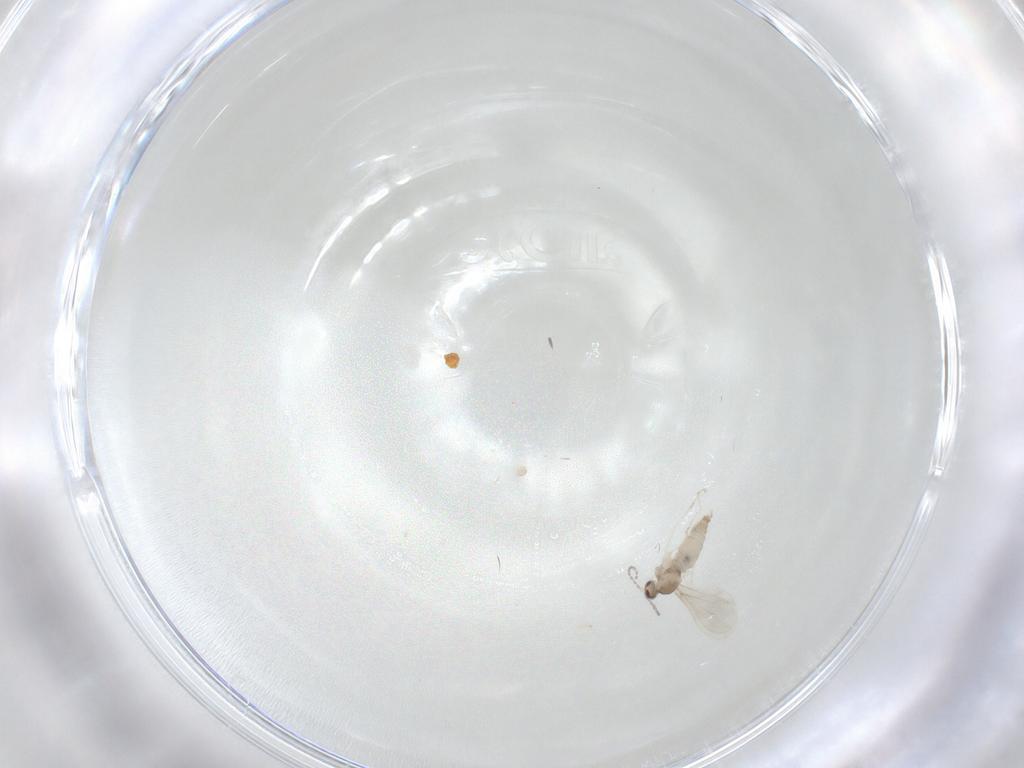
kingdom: Animalia
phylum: Arthropoda
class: Insecta
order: Diptera
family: Cecidomyiidae
